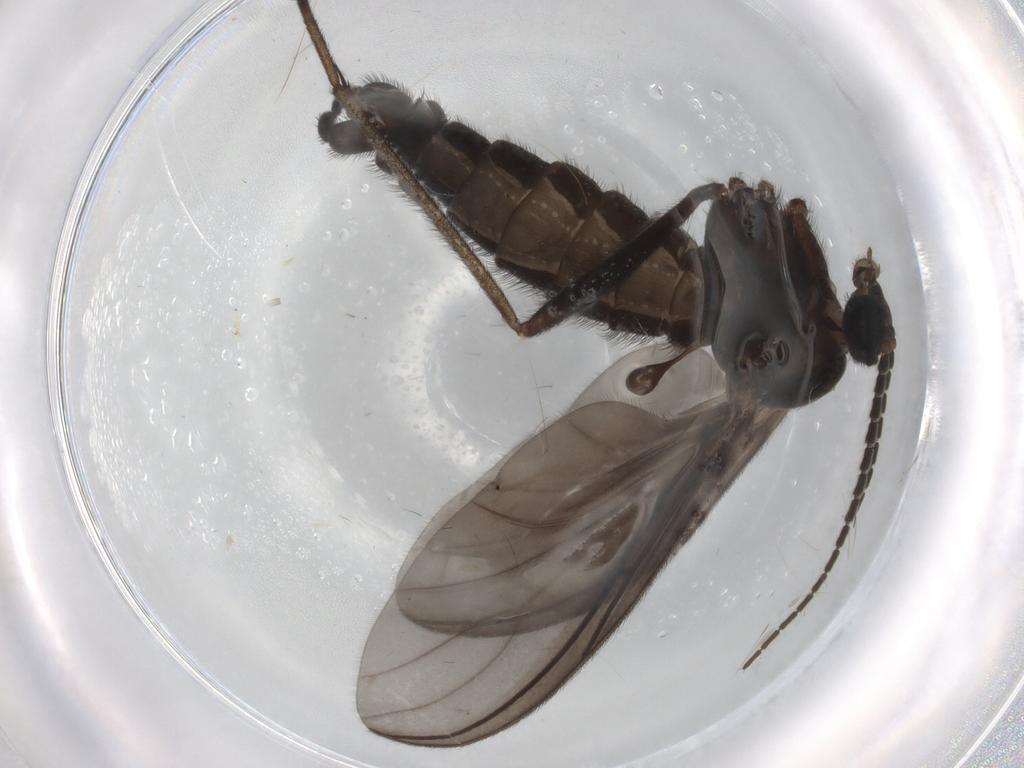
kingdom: Animalia
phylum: Arthropoda
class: Insecta
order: Diptera
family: Sciaridae
